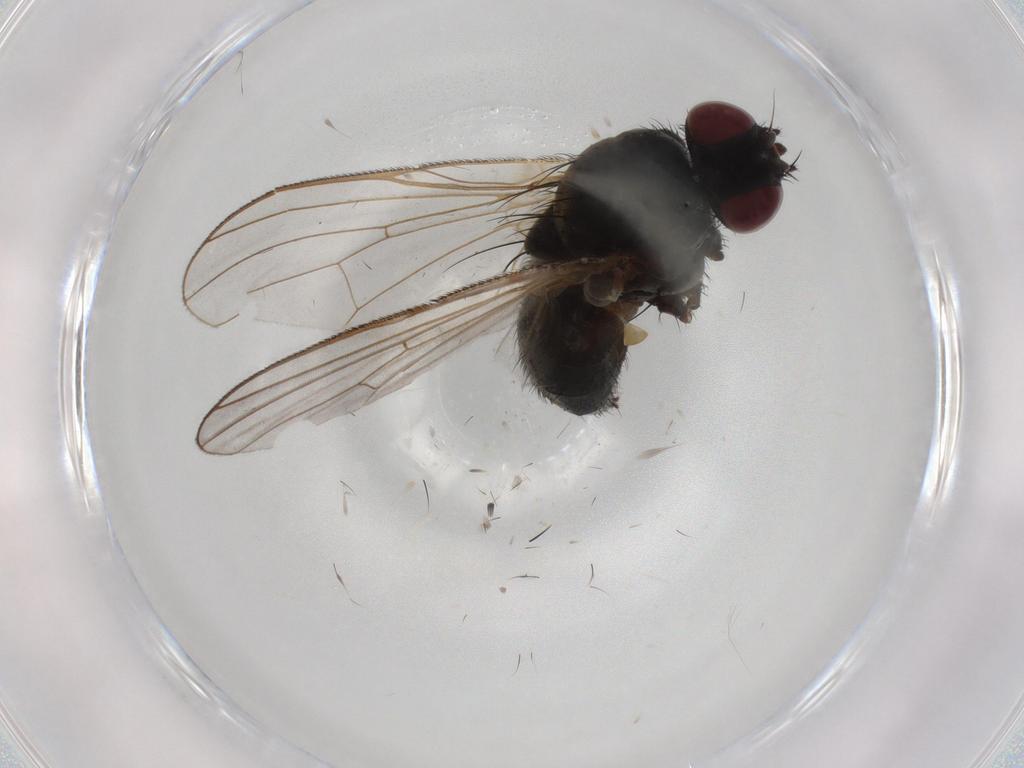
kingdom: Animalia
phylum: Arthropoda
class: Insecta
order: Diptera
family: Muscidae
